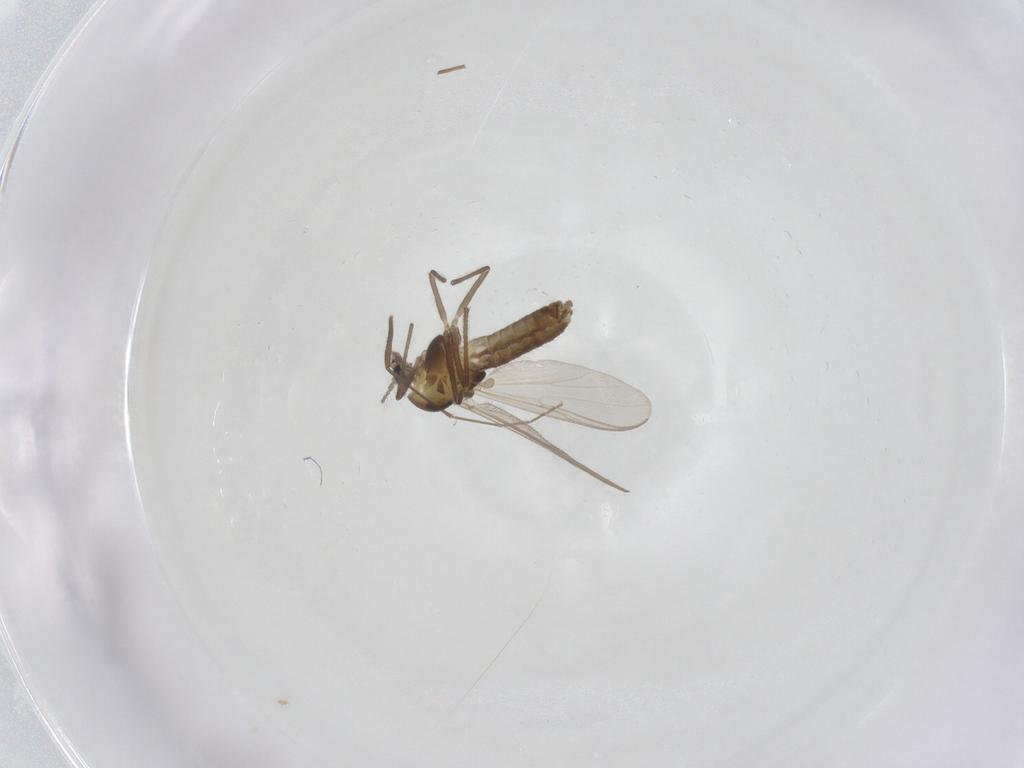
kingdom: Animalia
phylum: Arthropoda
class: Insecta
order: Diptera
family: Chironomidae
